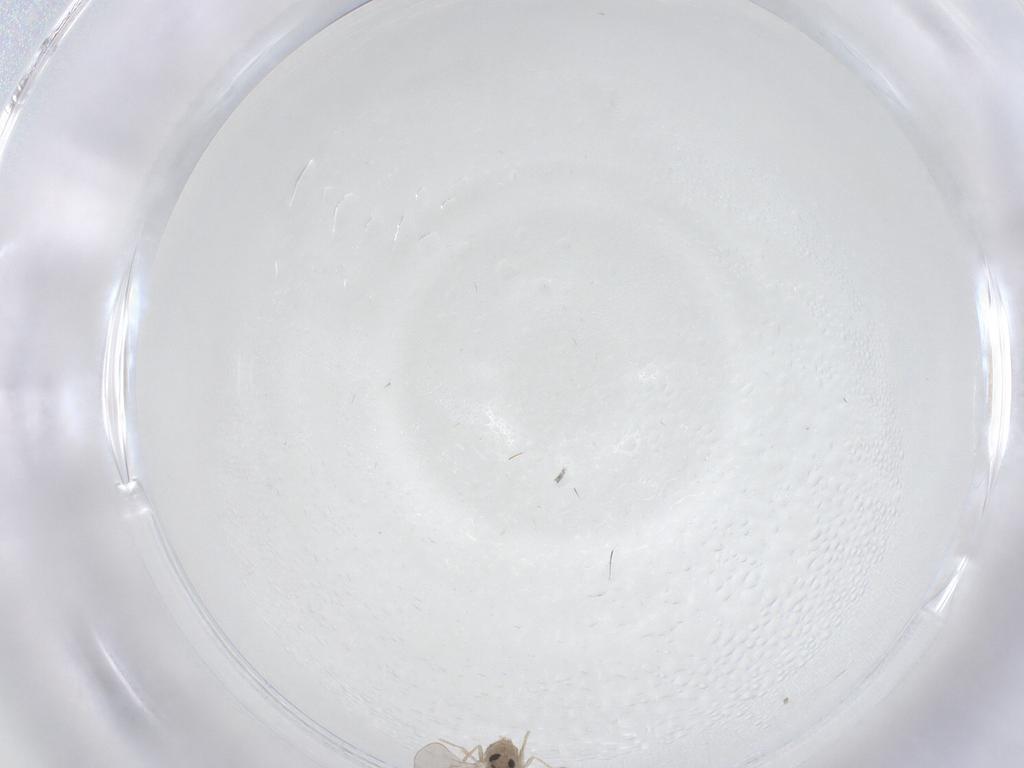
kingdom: Animalia
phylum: Arthropoda
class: Insecta
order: Diptera
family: Cecidomyiidae
